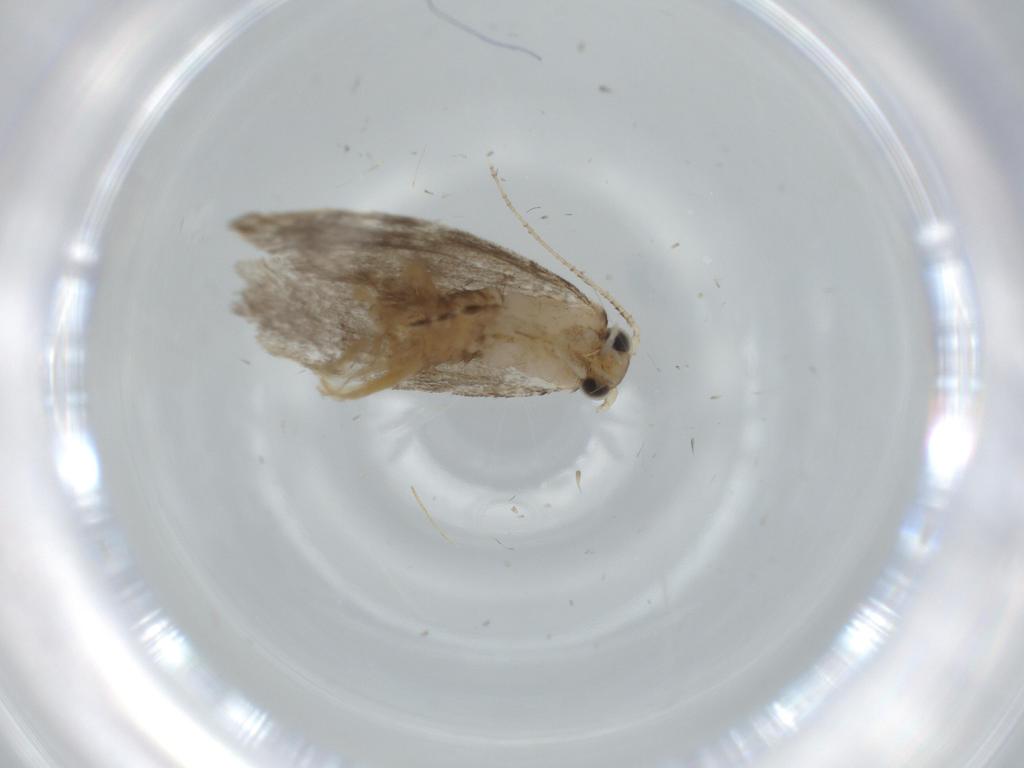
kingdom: Animalia
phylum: Arthropoda
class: Insecta
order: Lepidoptera
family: Tineidae
